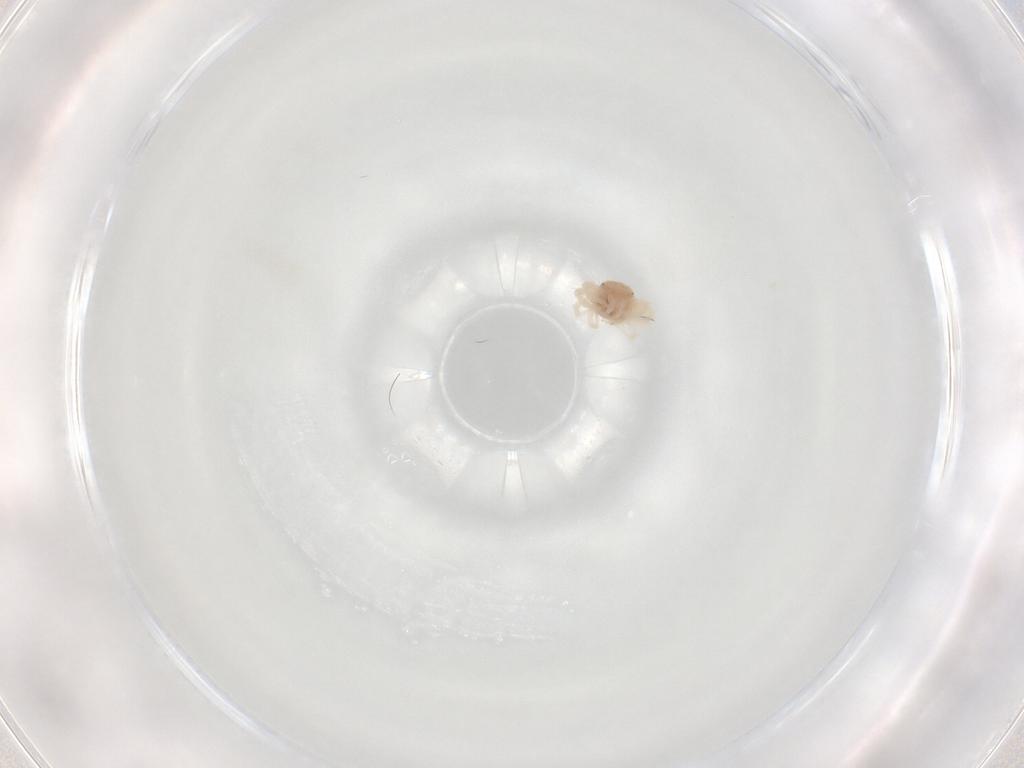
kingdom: Animalia
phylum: Arthropoda
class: Arachnida
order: Trombidiformes
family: Anystidae
